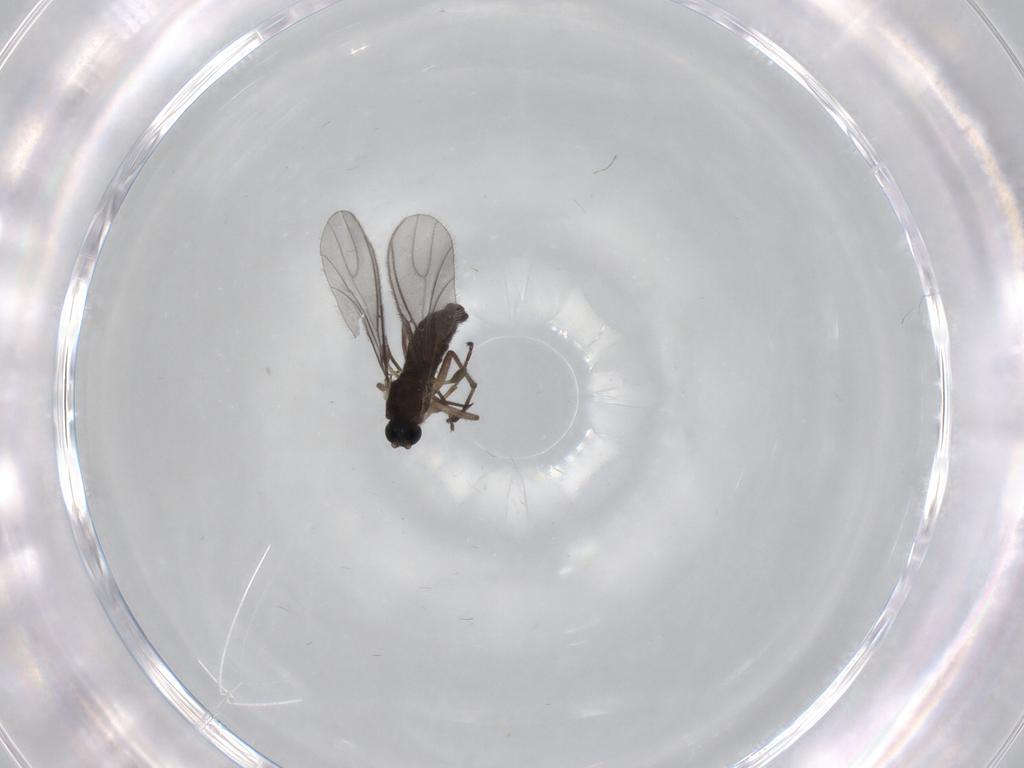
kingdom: Animalia
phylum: Arthropoda
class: Insecta
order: Diptera
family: Sciaridae
